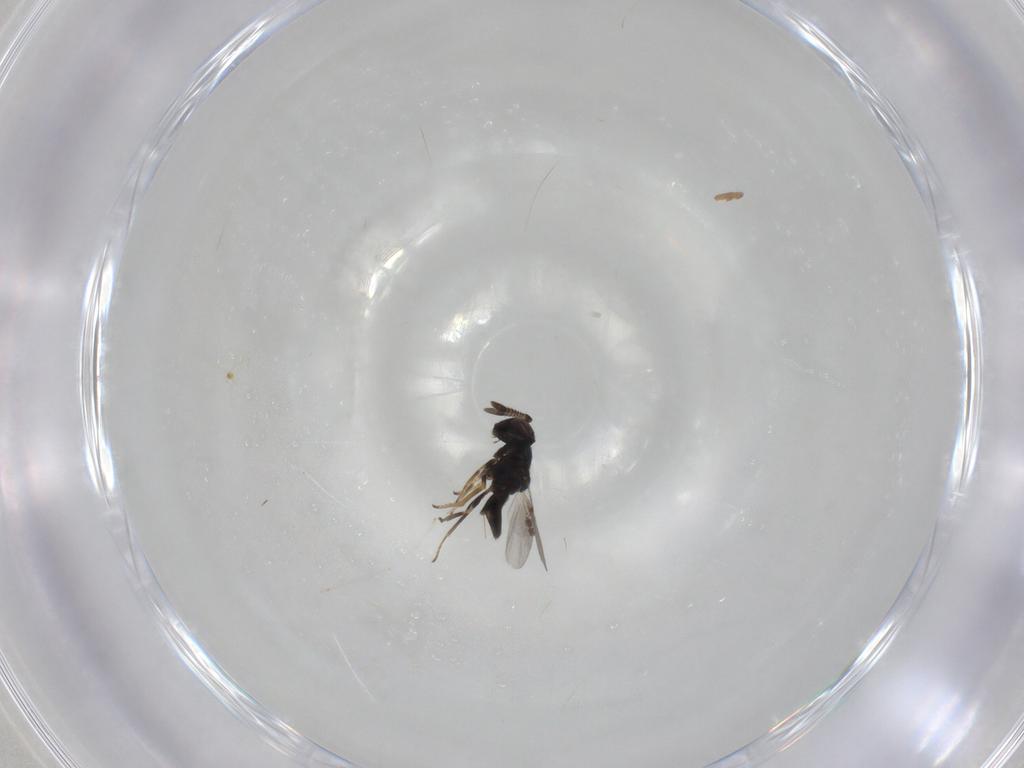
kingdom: Animalia
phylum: Arthropoda
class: Insecta
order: Hymenoptera
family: Encyrtidae
